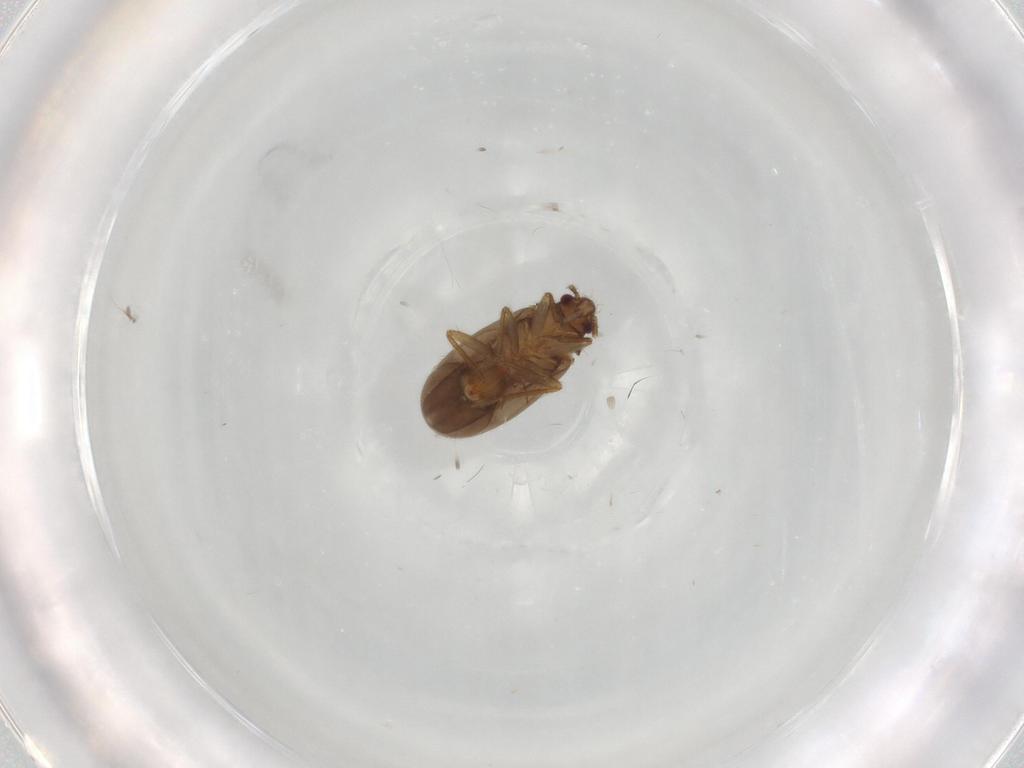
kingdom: Animalia
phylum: Arthropoda
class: Insecta
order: Hemiptera
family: Ceratocombidae
